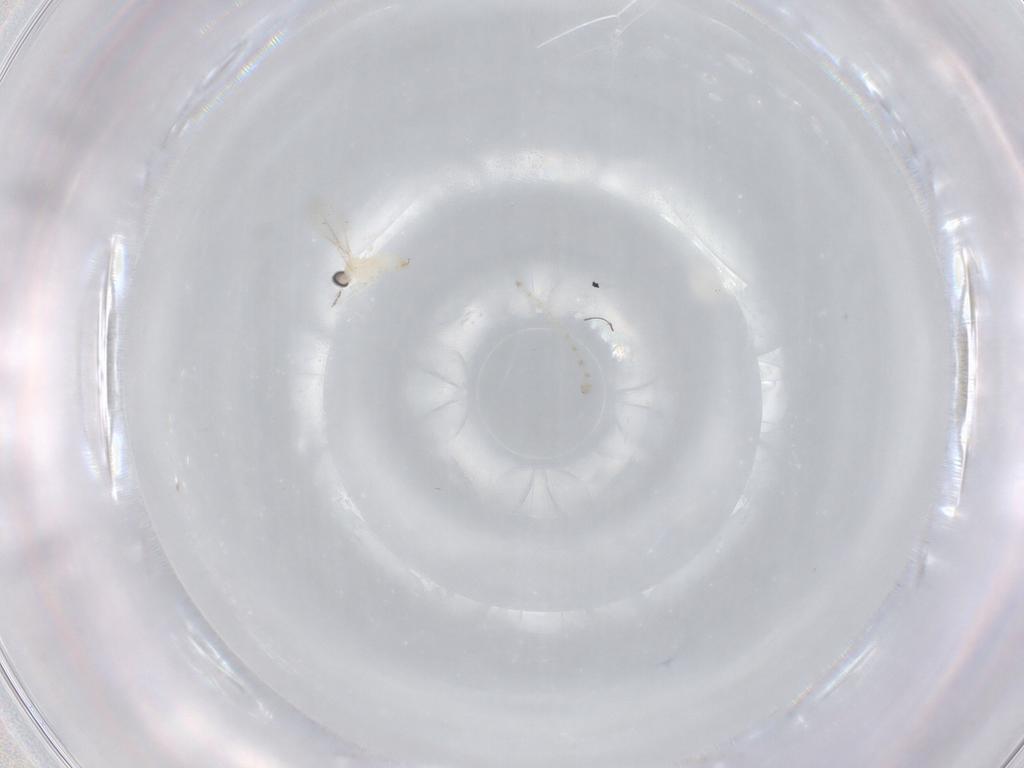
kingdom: Animalia
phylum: Arthropoda
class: Insecta
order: Diptera
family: Cecidomyiidae
